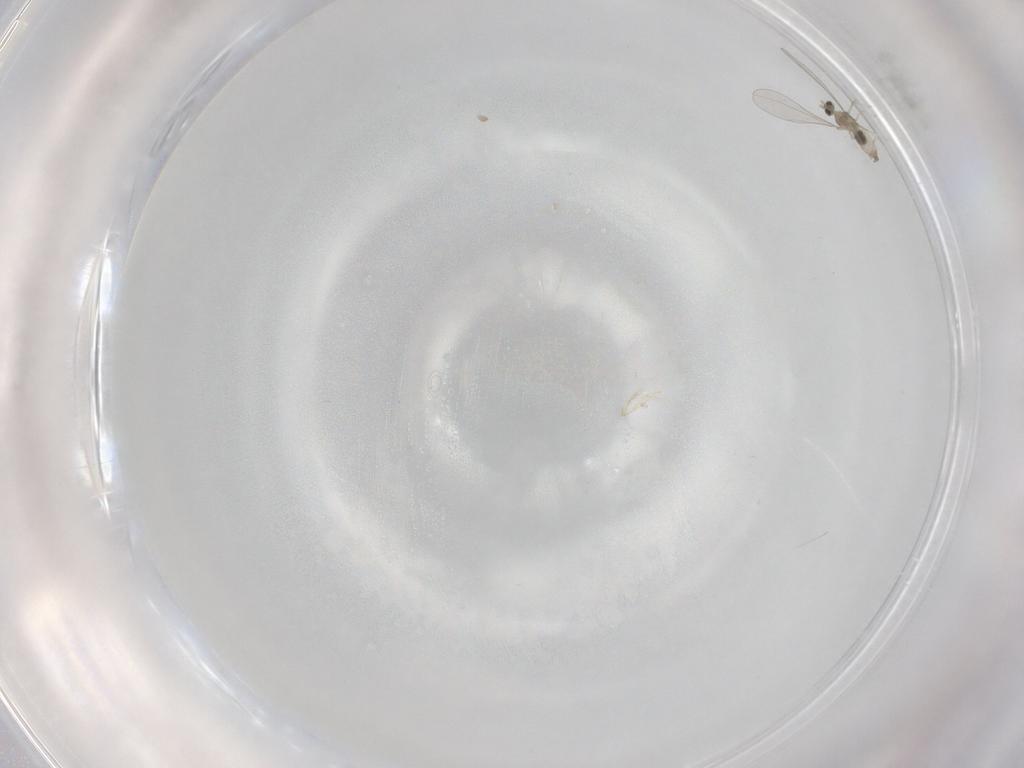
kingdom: Animalia
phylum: Arthropoda
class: Insecta
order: Diptera
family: Cecidomyiidae
